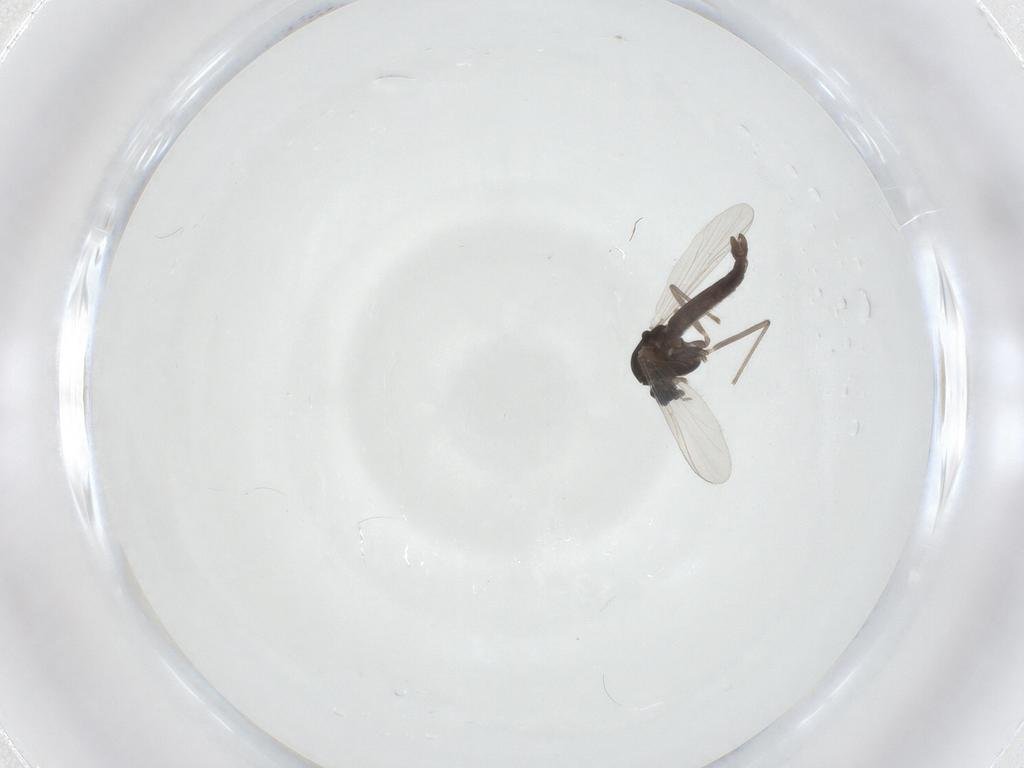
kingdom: Animalia
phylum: Arthropoda
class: Insecta
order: Diptera
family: Chironomidae
